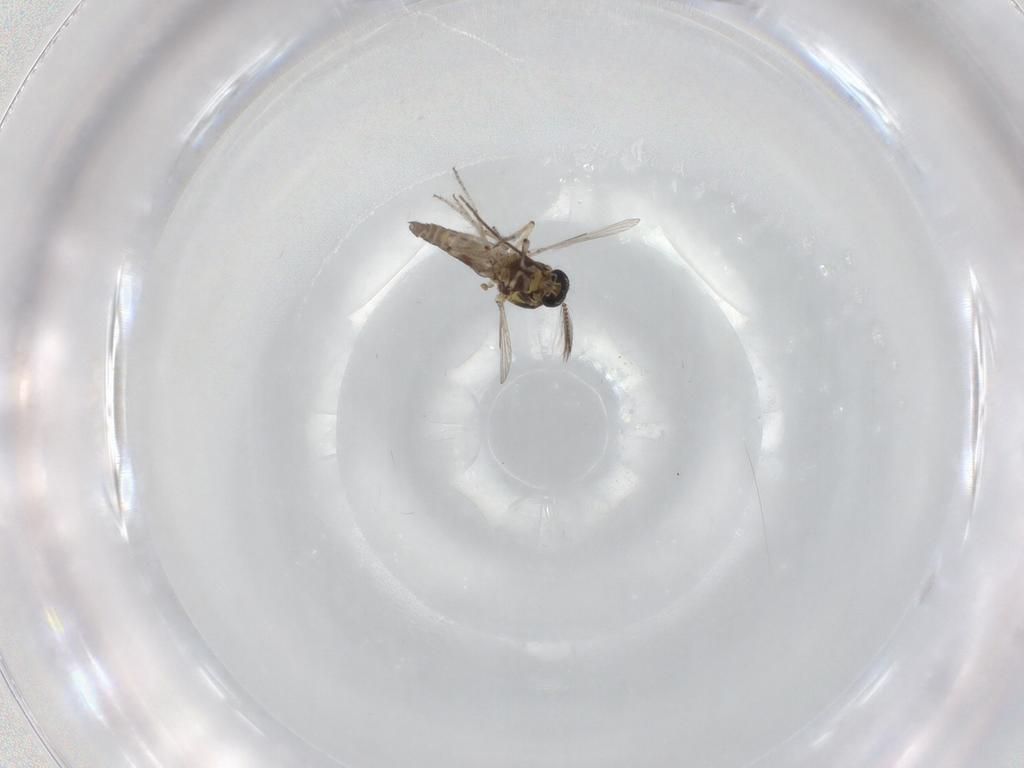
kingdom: Animalia
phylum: Arthropoda
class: Insecta
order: Diptera
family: Ceratopogonidae
